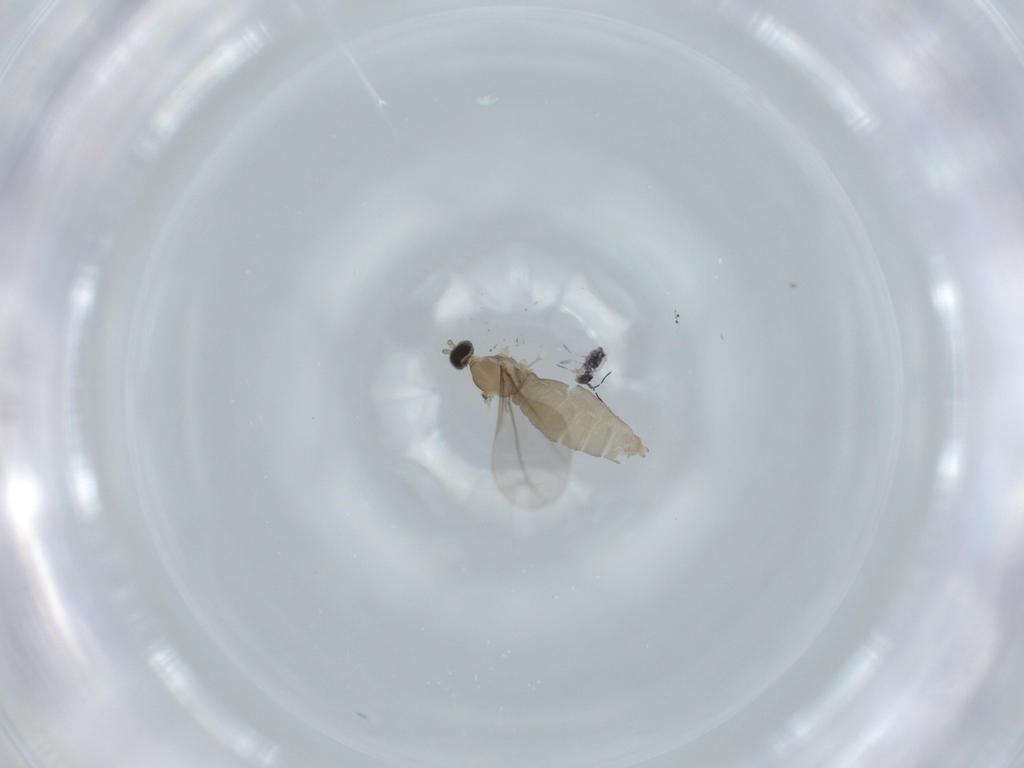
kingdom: Animalia
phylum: Arthropoda
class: Insecta
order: Diptera
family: Cecidomyiidae
